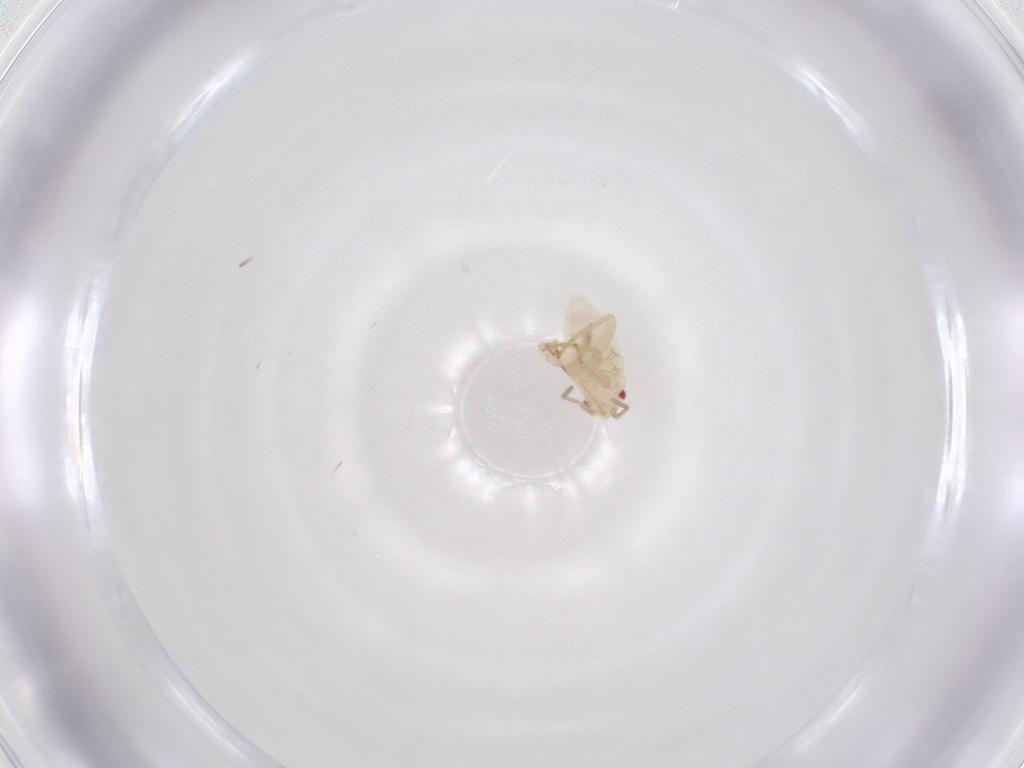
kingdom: Animalia
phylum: Arthropoda
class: Insecta
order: Hemiptera
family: Miridae
